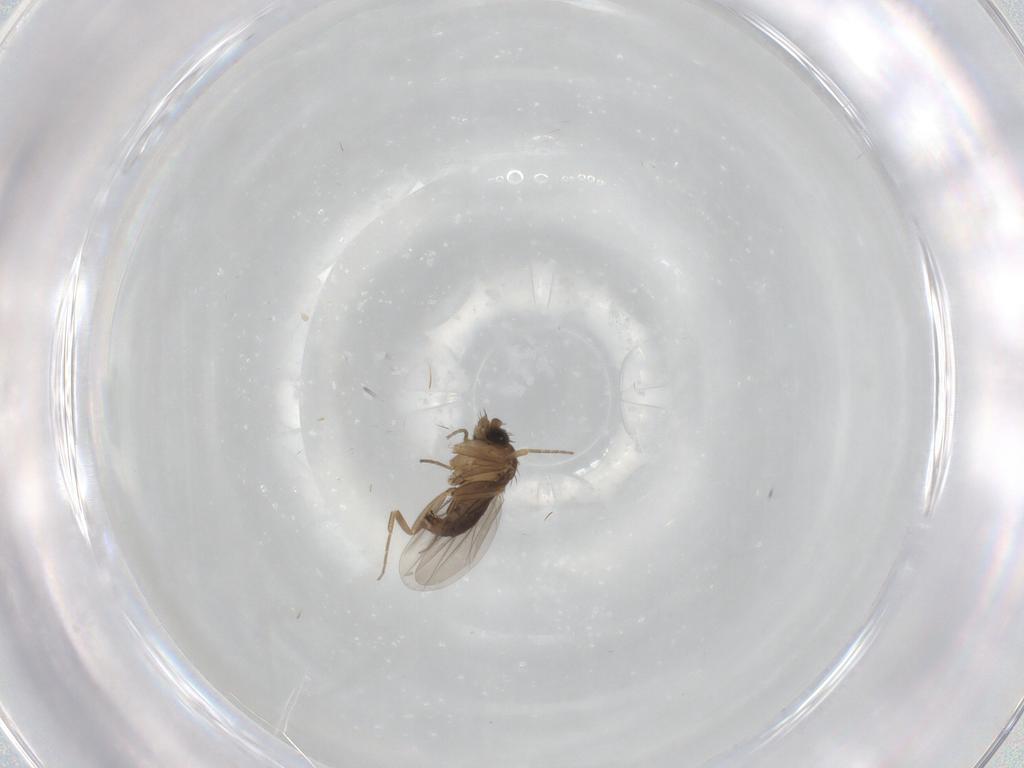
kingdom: Animalia
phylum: Arthropoda
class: Insecta
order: Diptera
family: Chironomidae
